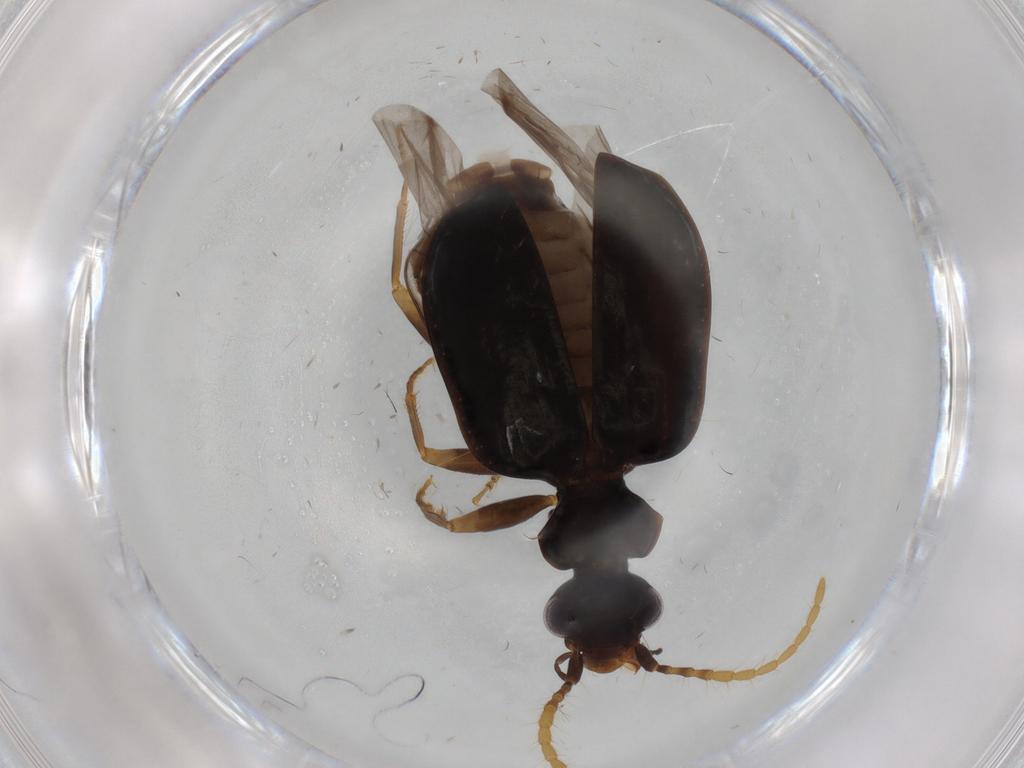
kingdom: Animalia
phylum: Arthropoda
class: Insecta
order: Coleoptera
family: Carabidae
